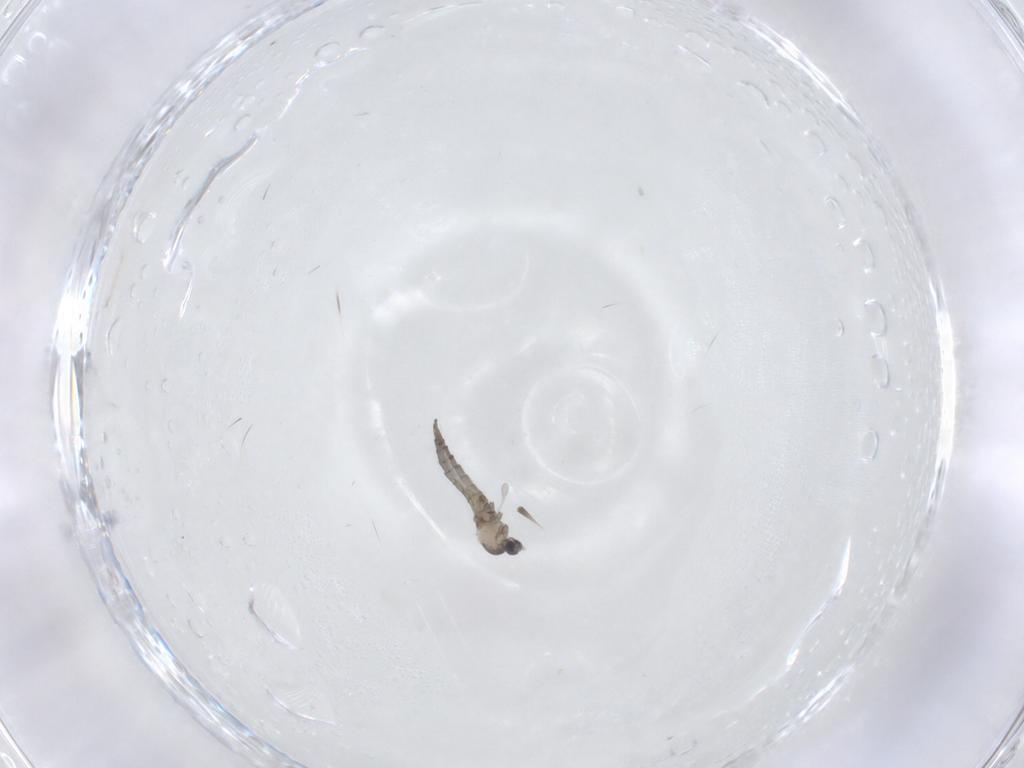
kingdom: Animalia
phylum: Arthropoda
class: Insecta
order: Diptera
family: Cecidomyiidae
